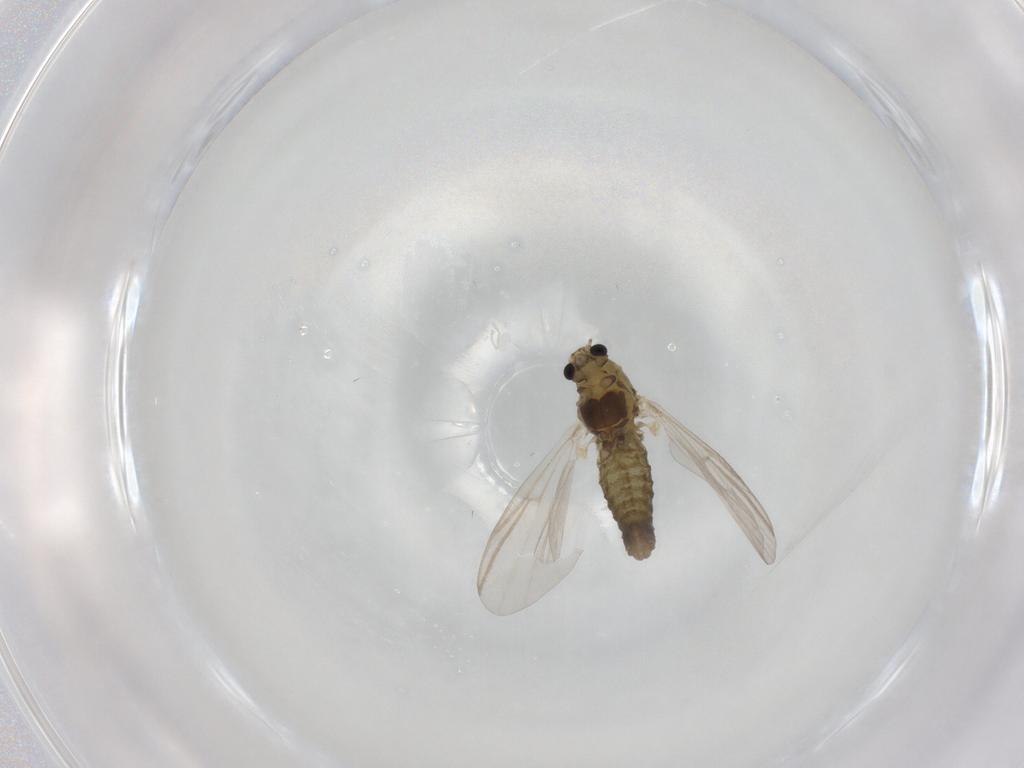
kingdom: Animalia
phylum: Arthropoda
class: Insecta
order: Diptera
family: Chironomidae
